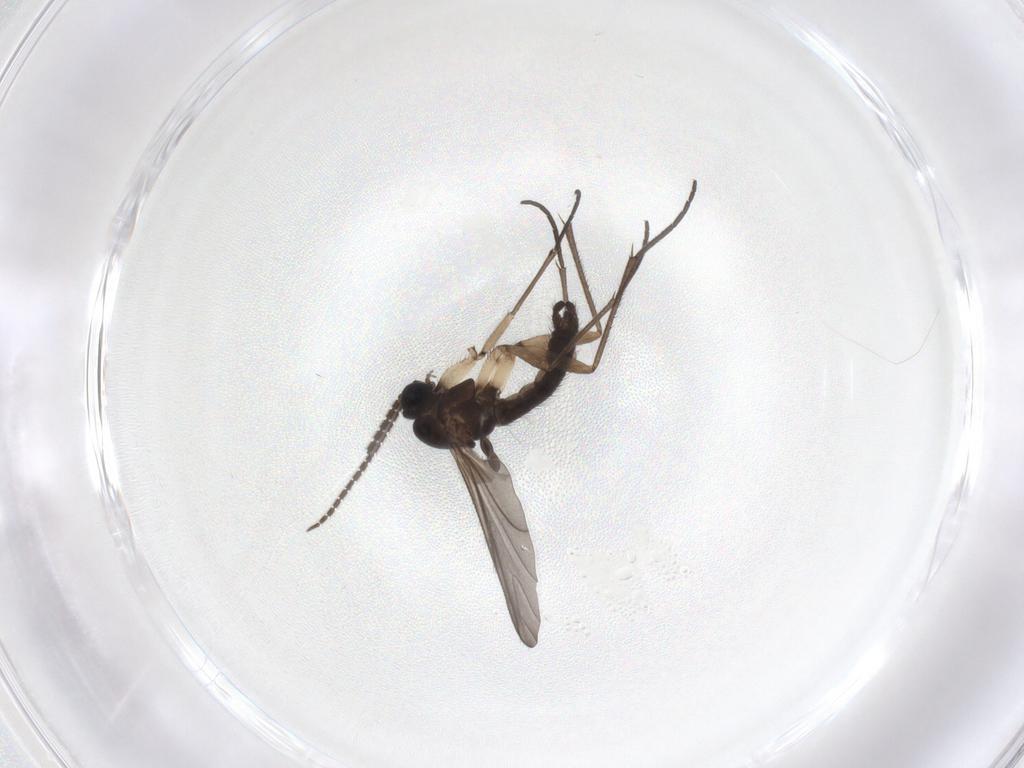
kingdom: Animalia
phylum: Arthropoda
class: Insecta
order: Diptera
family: Sciaridae
